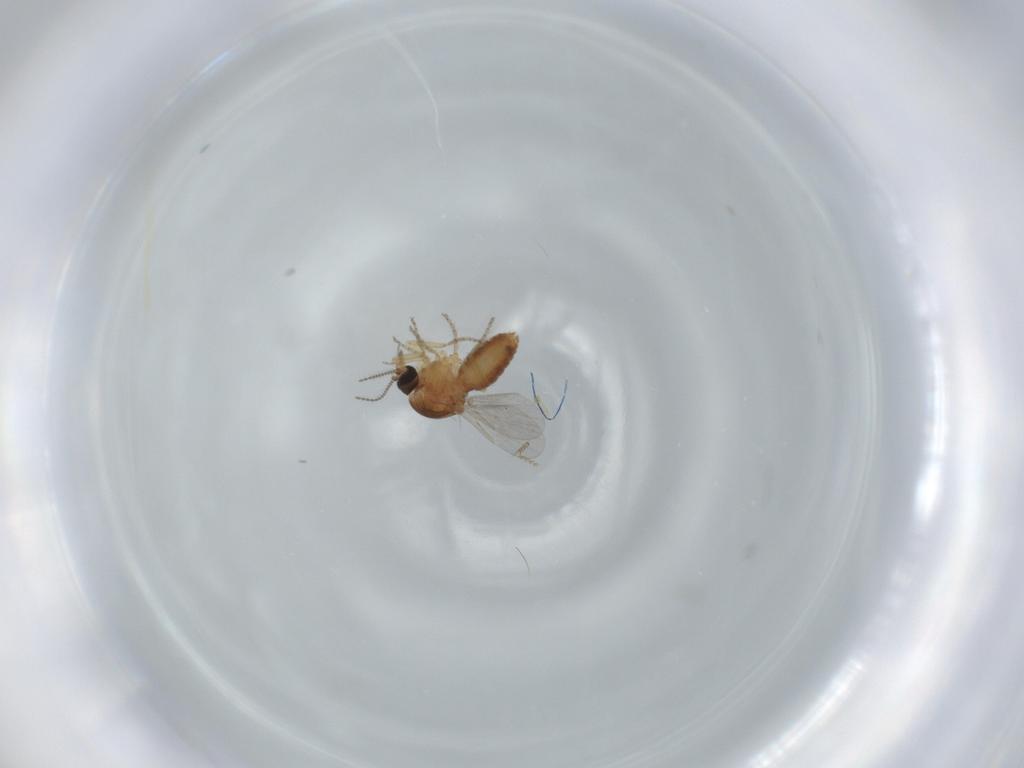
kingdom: Animalia
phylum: Arthropoda
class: Insecta
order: Diptera
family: Ceratopogonidae
